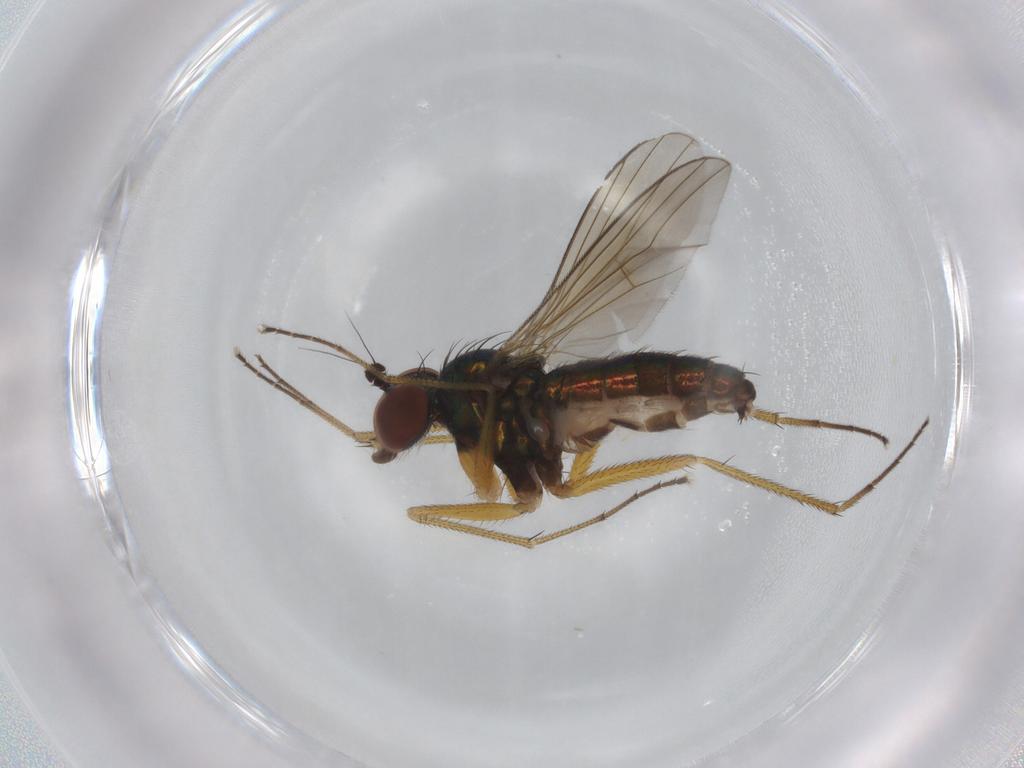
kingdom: Animalia
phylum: Arthropoda
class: Insecta
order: Diptera
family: Dolichopodidae
